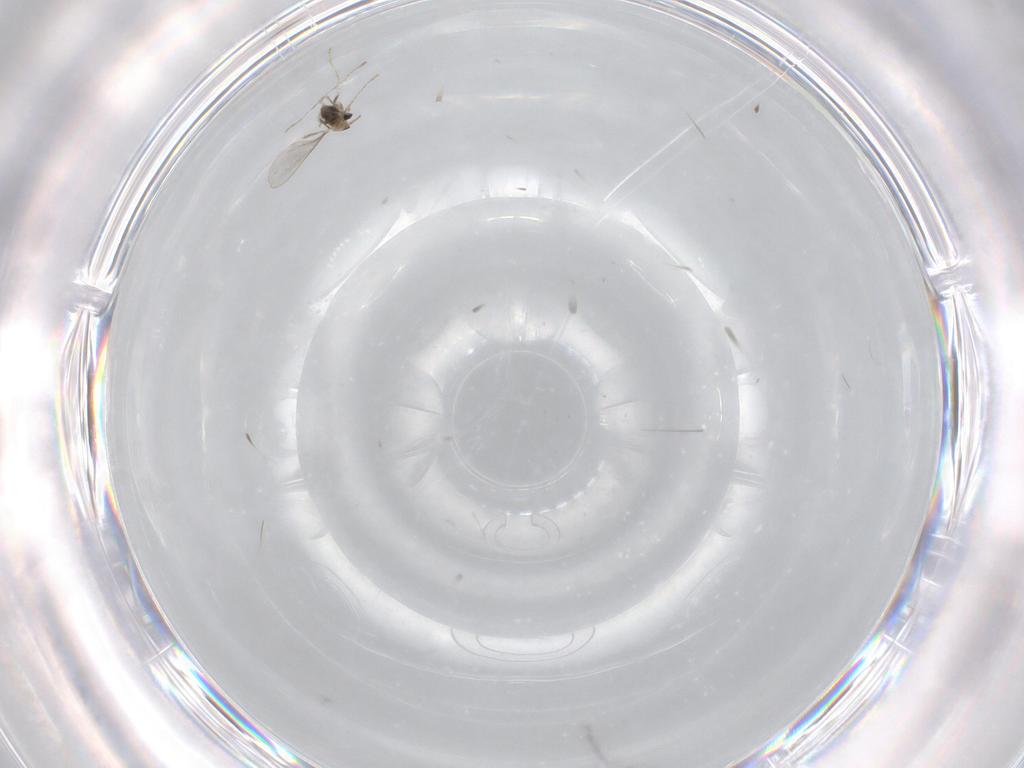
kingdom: Animalia
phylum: Arthropoda
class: Insecta
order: Diptera
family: Cecidomyiidae
